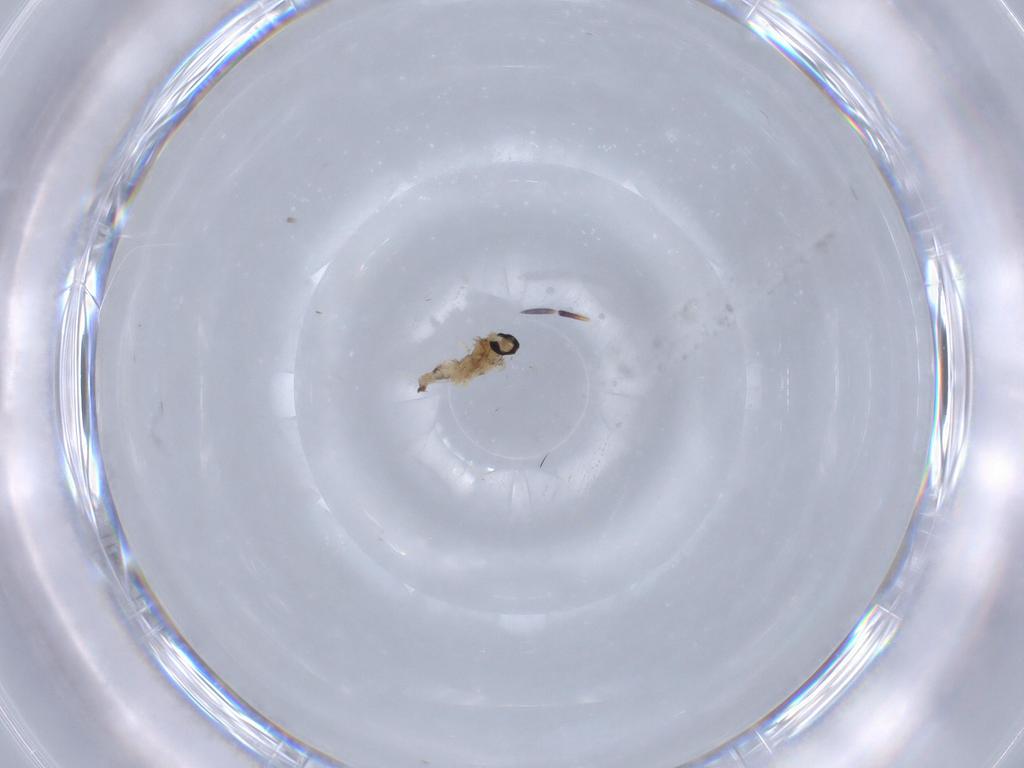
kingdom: Animalia
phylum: Arthropoda
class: Insecta
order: Diptera
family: Cecidomyiidae
